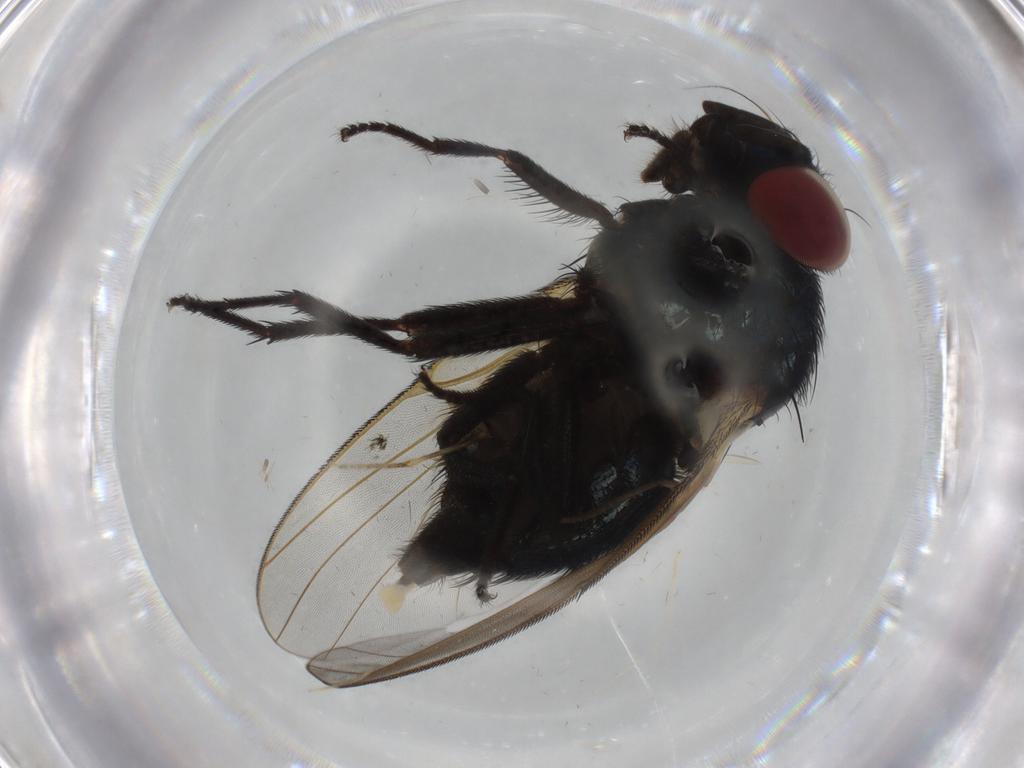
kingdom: Animalia
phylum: Arthropoda
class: Insecta
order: Diptera
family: Lonchaeidae
